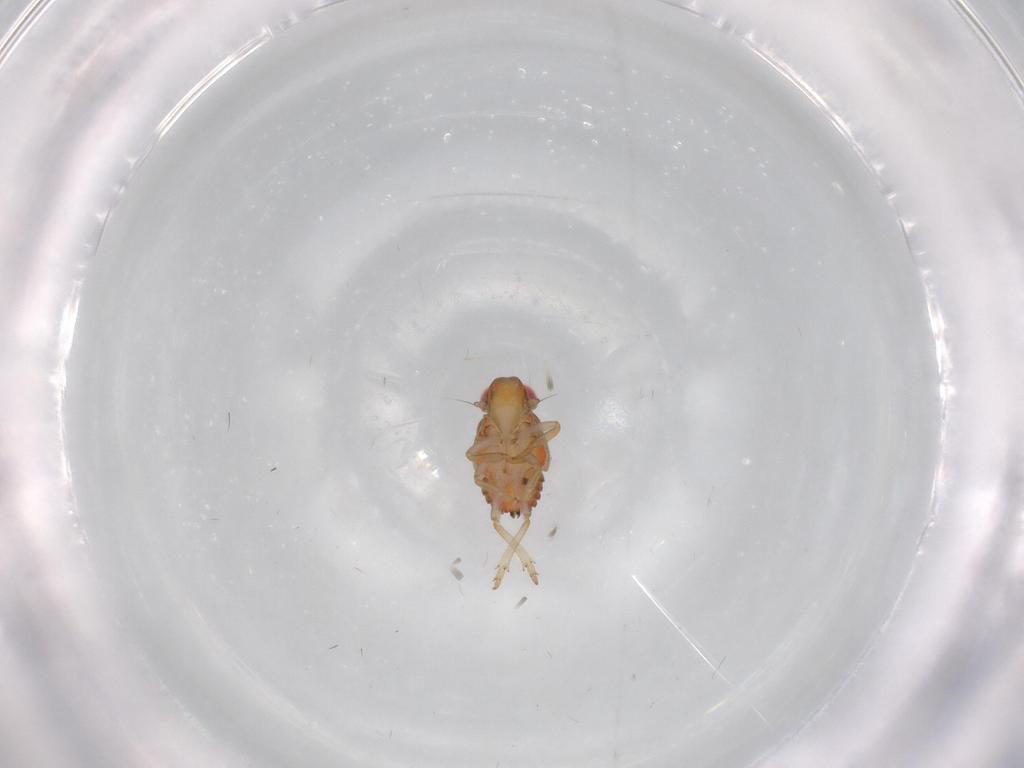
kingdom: Animalia
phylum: Arthropoda
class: Insecta
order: Hemiptera
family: Issidae
